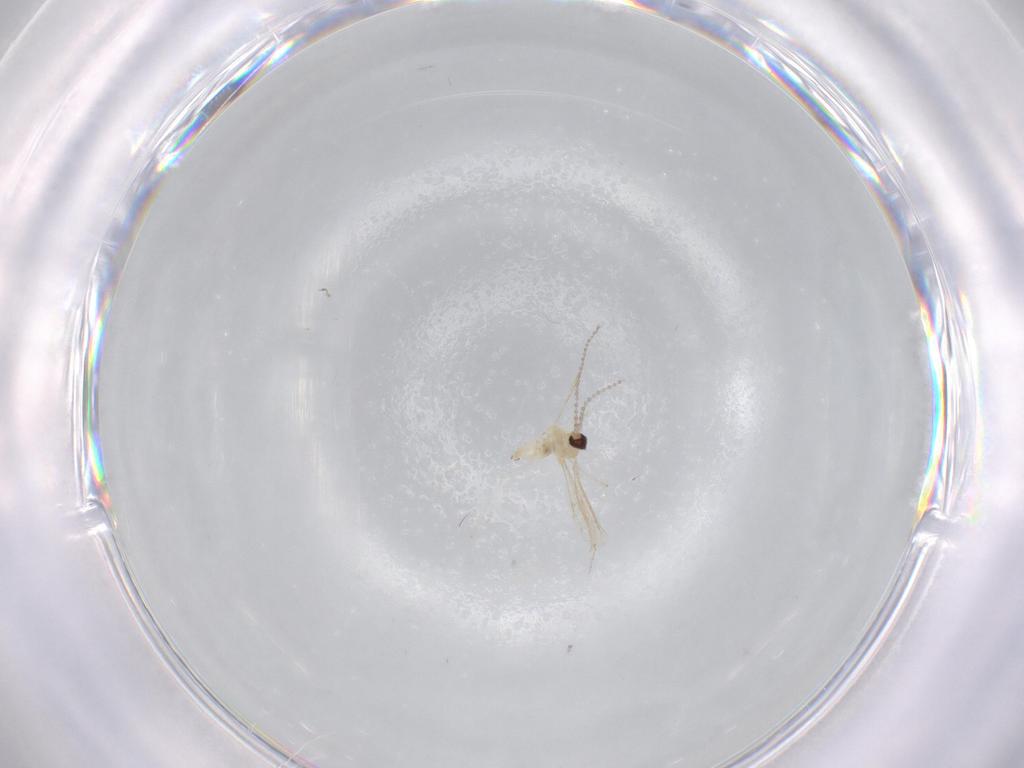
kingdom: Animalia
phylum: Arthropoda
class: Insecta
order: Diptera
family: Cecidomyiidae
